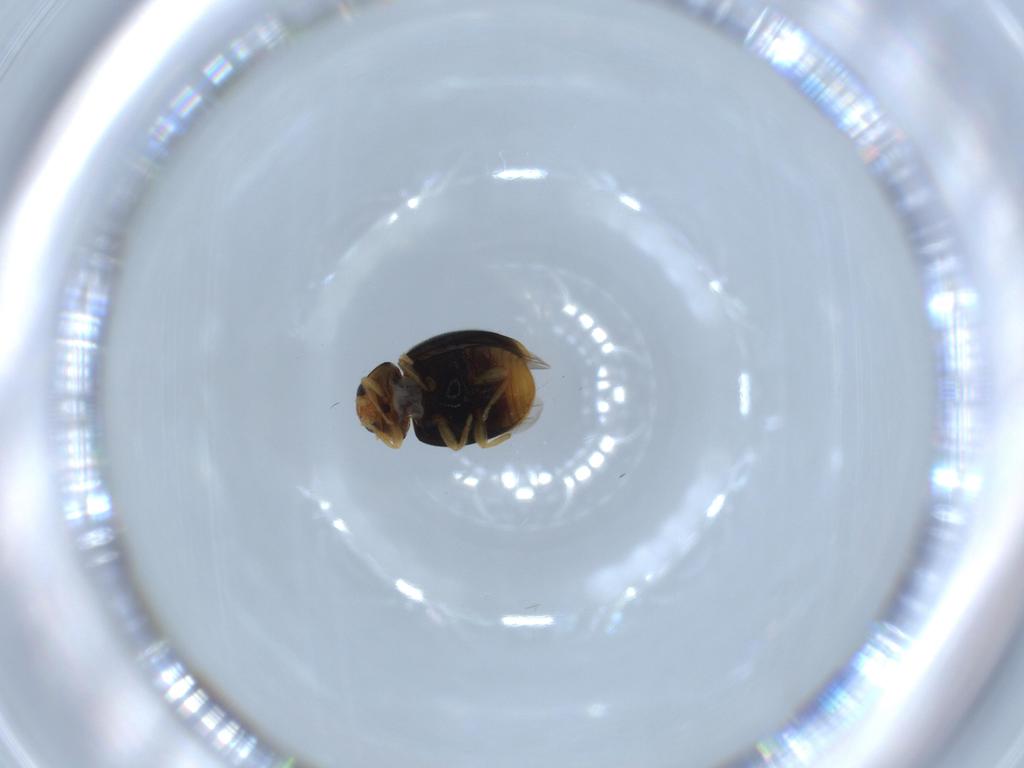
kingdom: Animalia
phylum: Arthropoda
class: Insecta
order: Coleoptera
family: Coccinellidae
